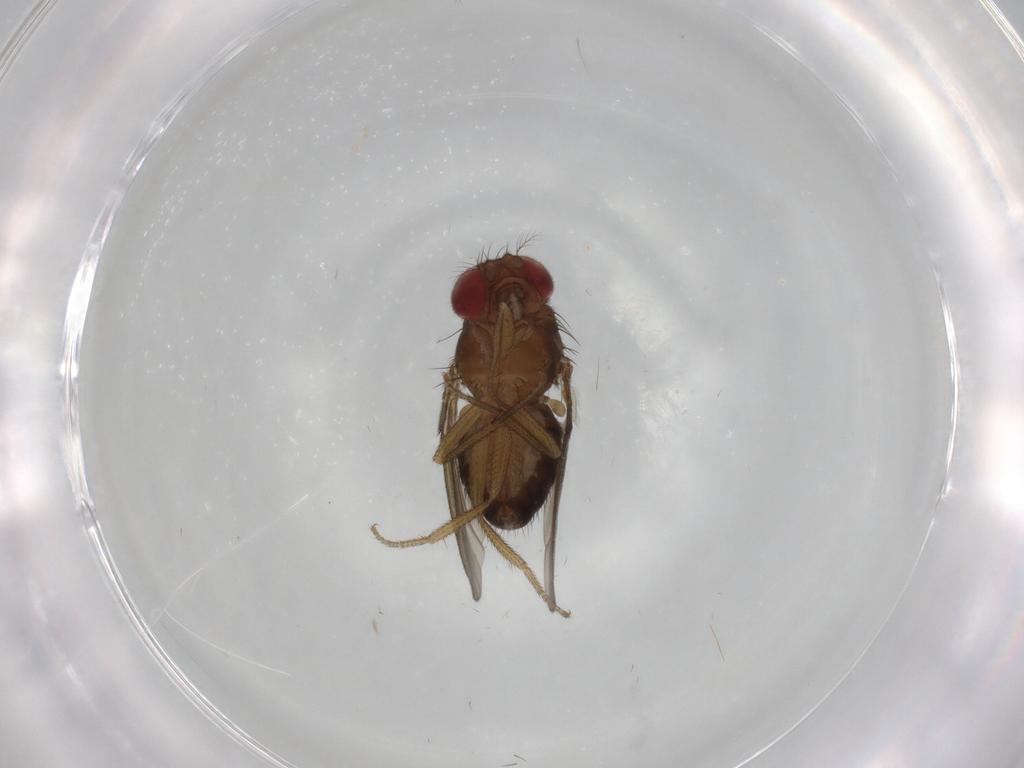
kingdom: Animalia
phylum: Arthropoda
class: Insecta
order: Diptera
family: Drosophilidae
